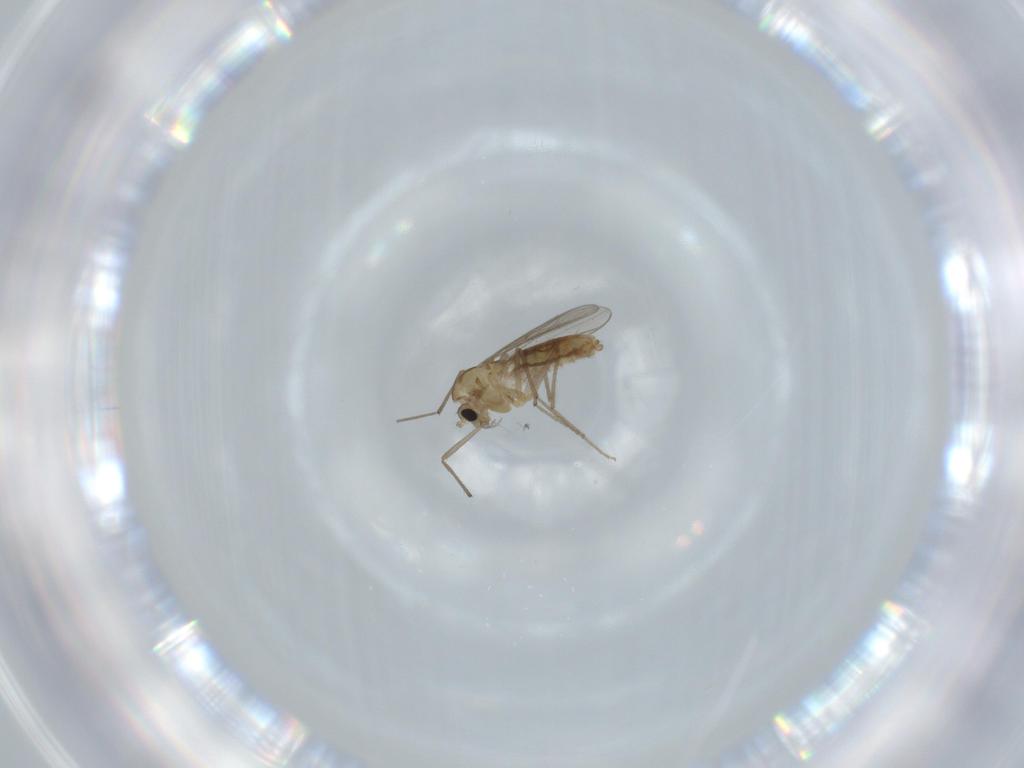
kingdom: Animalia
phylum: Arthropoda
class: Insecta
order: Diptera
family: Chironomidae
